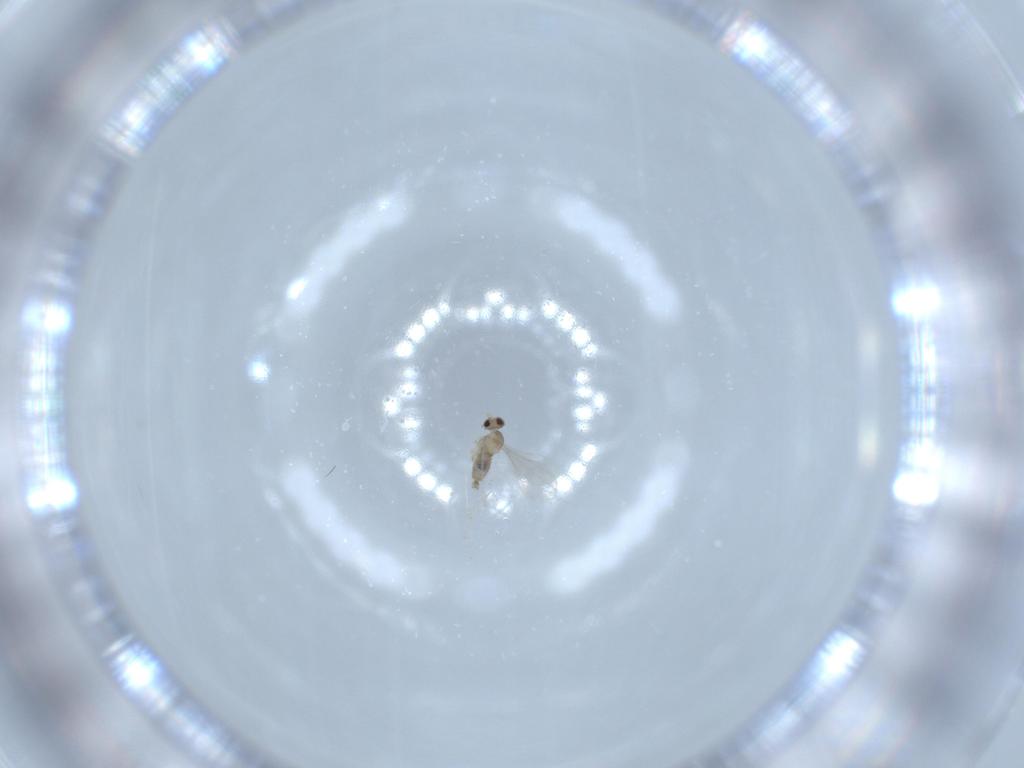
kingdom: Animalia
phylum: Arthropoda
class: Insecta
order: Diptera
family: Cecidomyiidae
